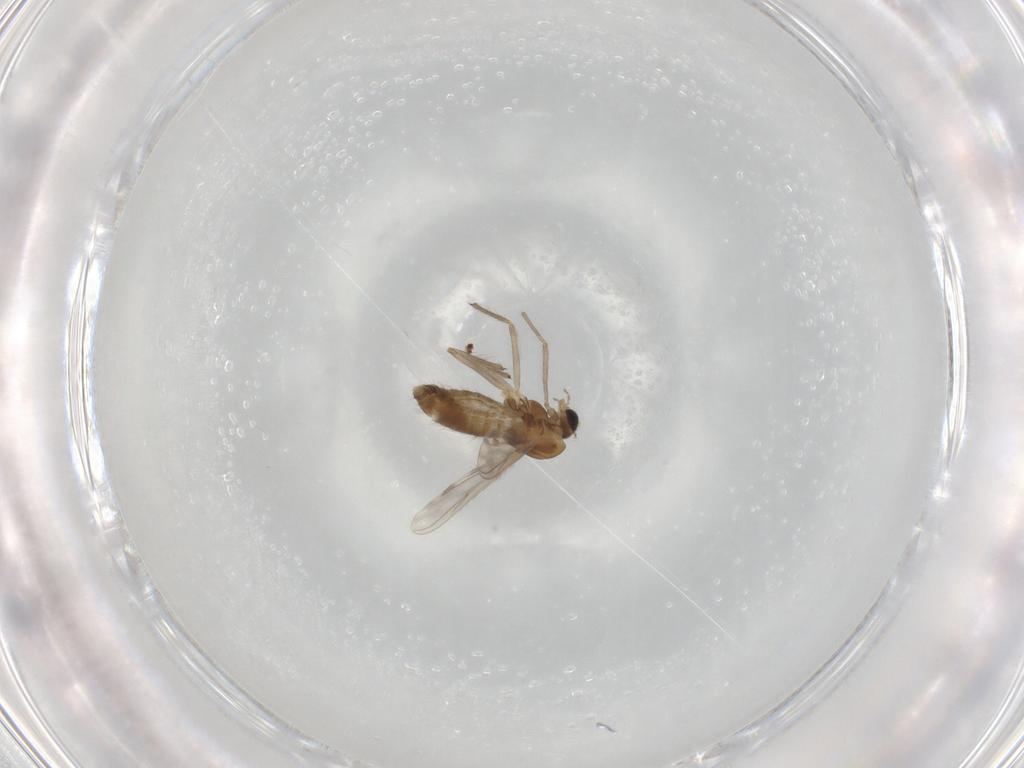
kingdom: Animalia
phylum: Arthropoda
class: Insecta
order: Diptera
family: Chironomidae
